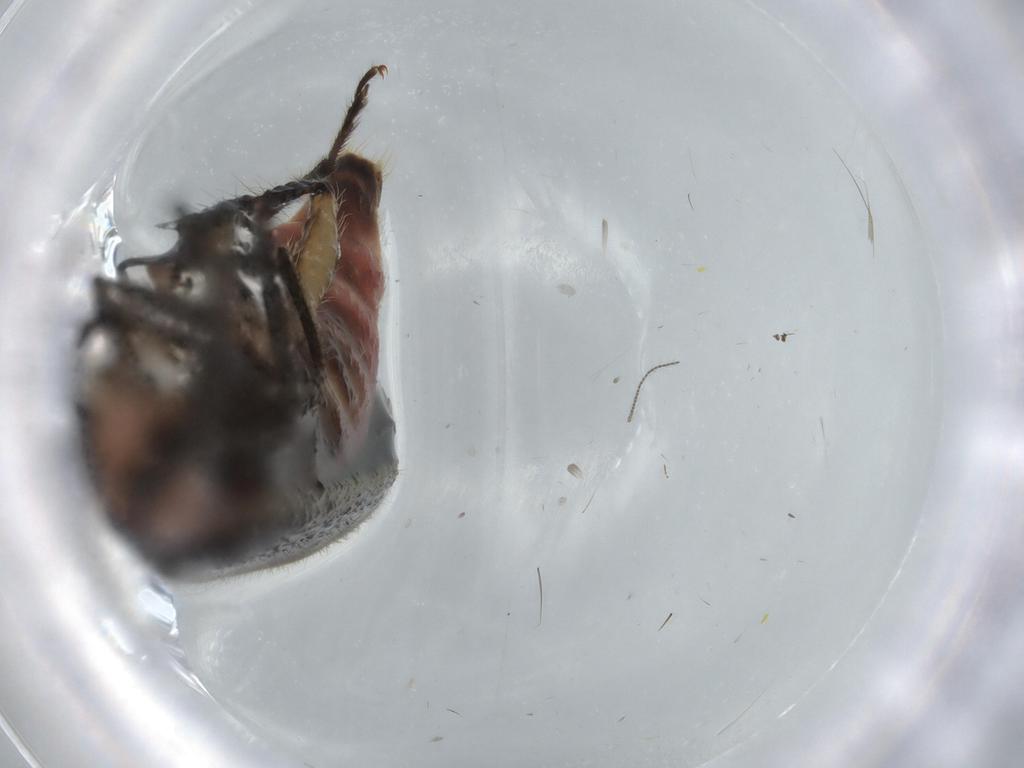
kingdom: Animalia
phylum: Arthropoda
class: Insecta
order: Coleoptera
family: Cleridae
